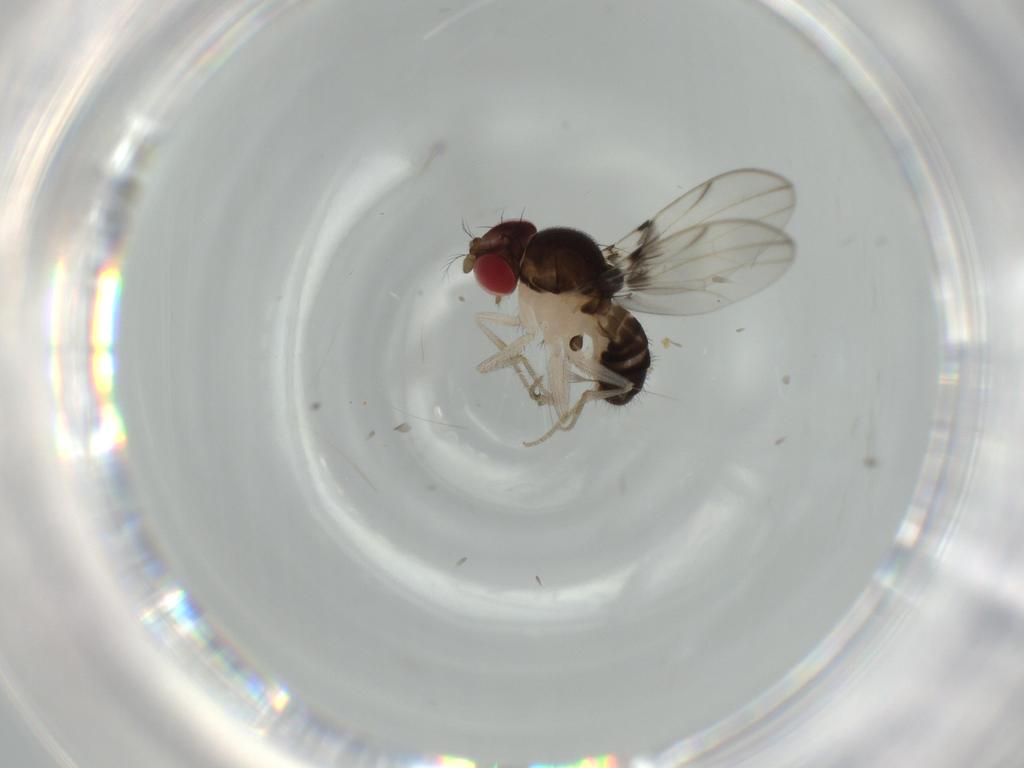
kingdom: Animalia
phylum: Arthropoda
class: Insecta
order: Diptera
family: Drosophilidae
